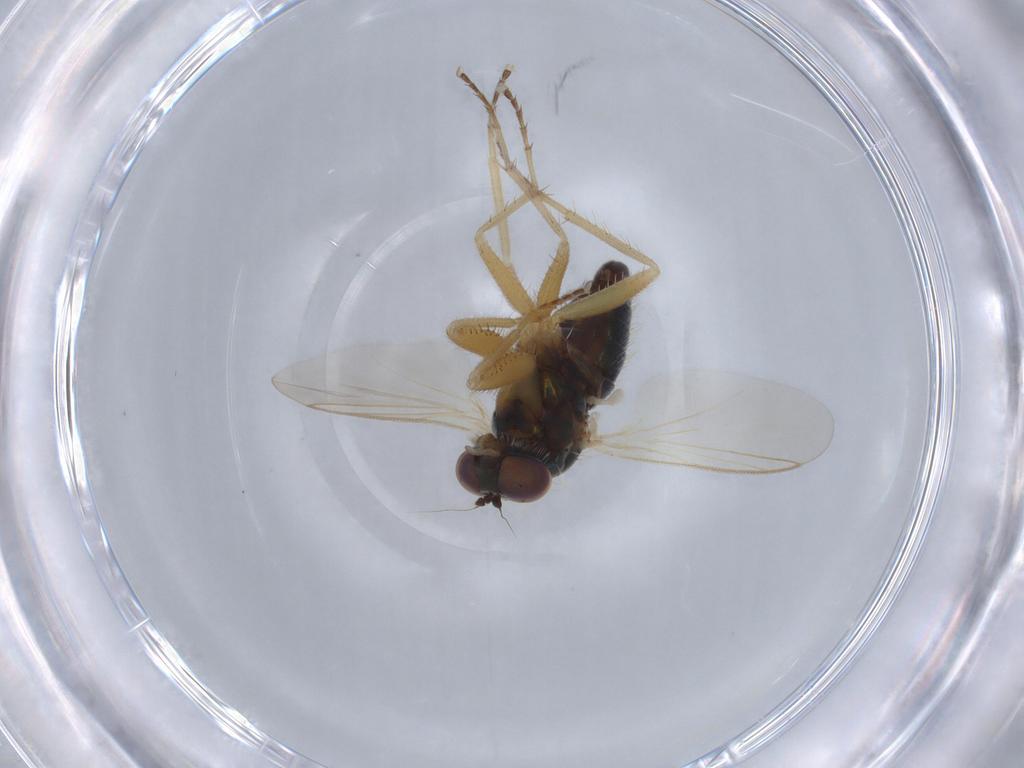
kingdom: Animalia
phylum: Arthropoda
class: Insecta
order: Diptera
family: Dolichopodidae
